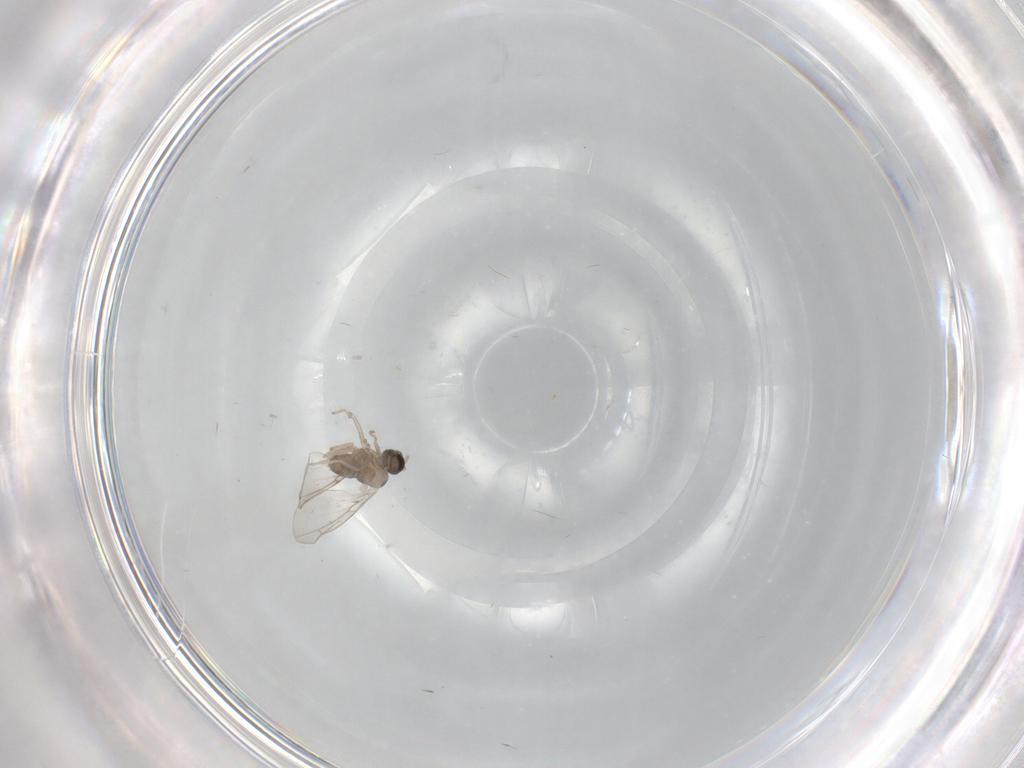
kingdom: Animalia
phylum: Arthropoda
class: Insecta
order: Diptera
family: Cecidomyiidae
